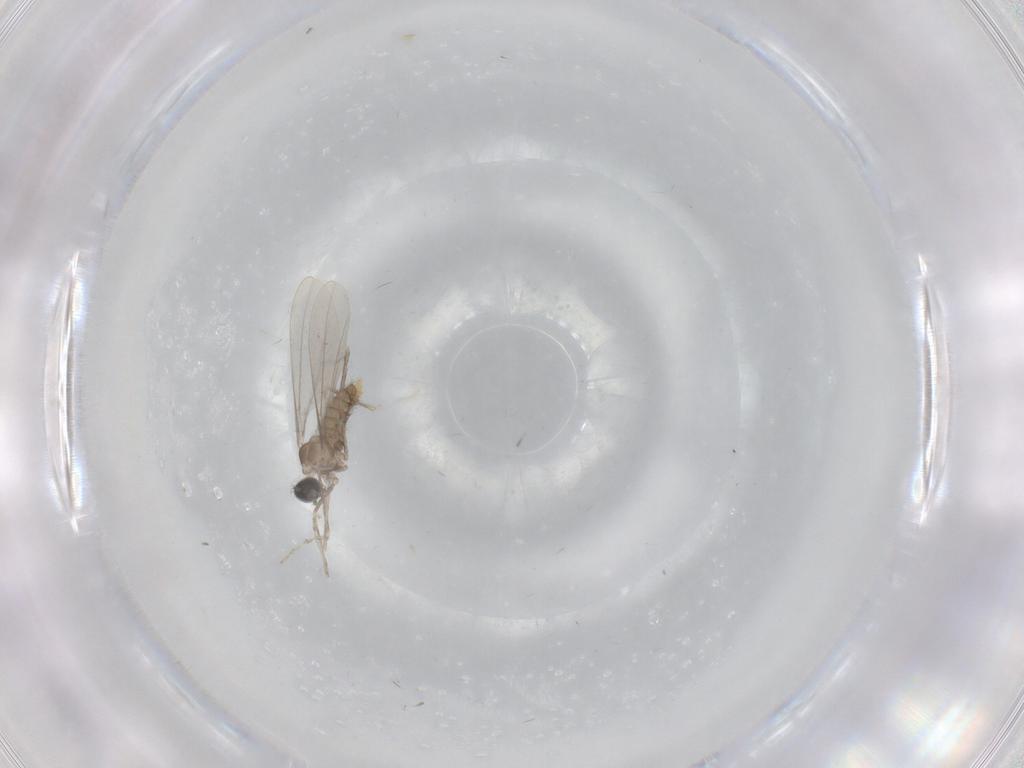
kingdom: Animalia
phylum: Arthropoda
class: Insecta
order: Diptera
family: Cecidomyiidae
